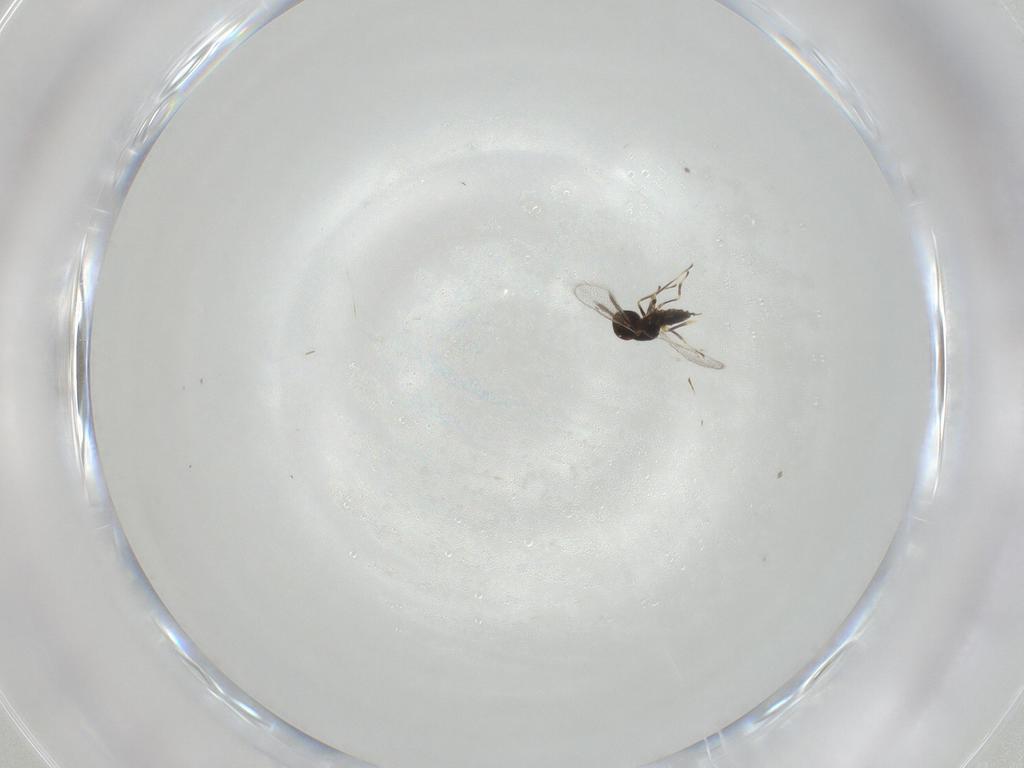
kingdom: Animalia
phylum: Arthropoda
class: Insecta
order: Hymenoptera
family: Eulophidae
